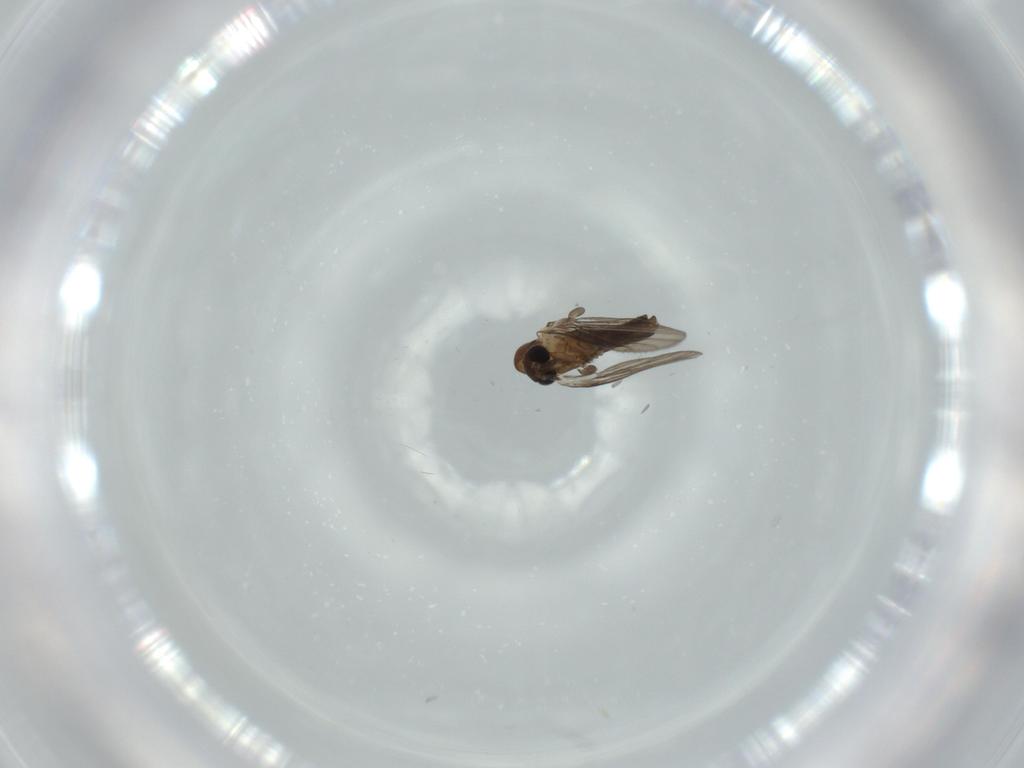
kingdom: Animalia
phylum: Arthropoda
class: Insecta
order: Diptera
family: Psychodidae
